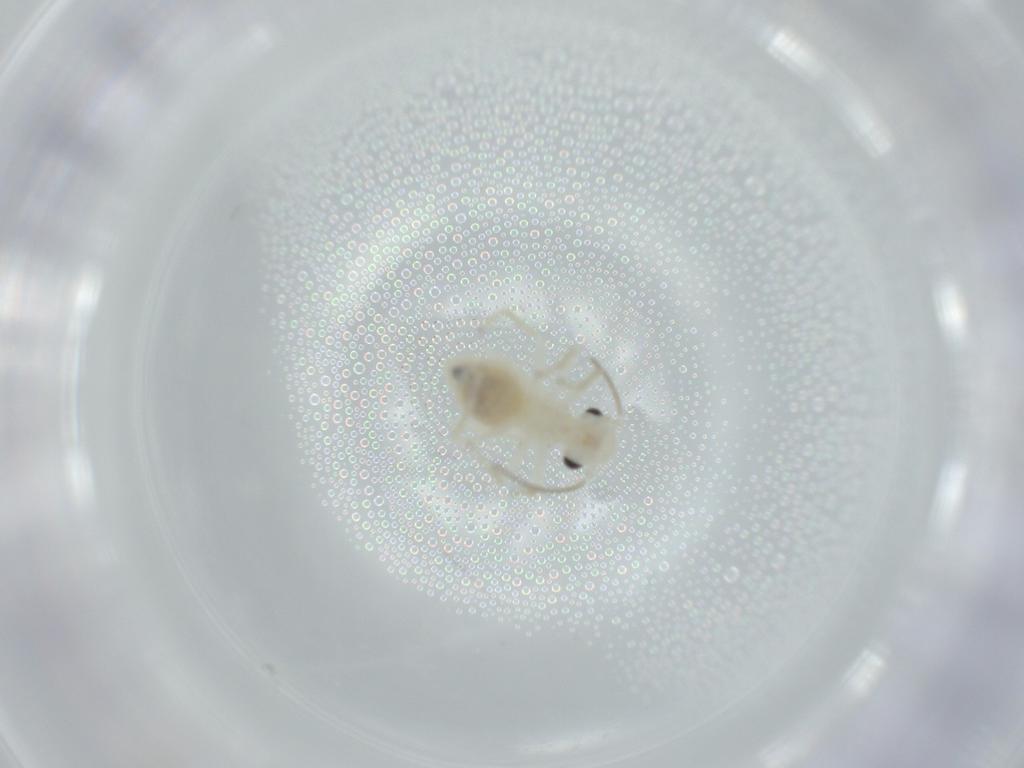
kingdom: Animalia
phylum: Arthropoda
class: Insecta
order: Psocodea
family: Caeciliusidae
